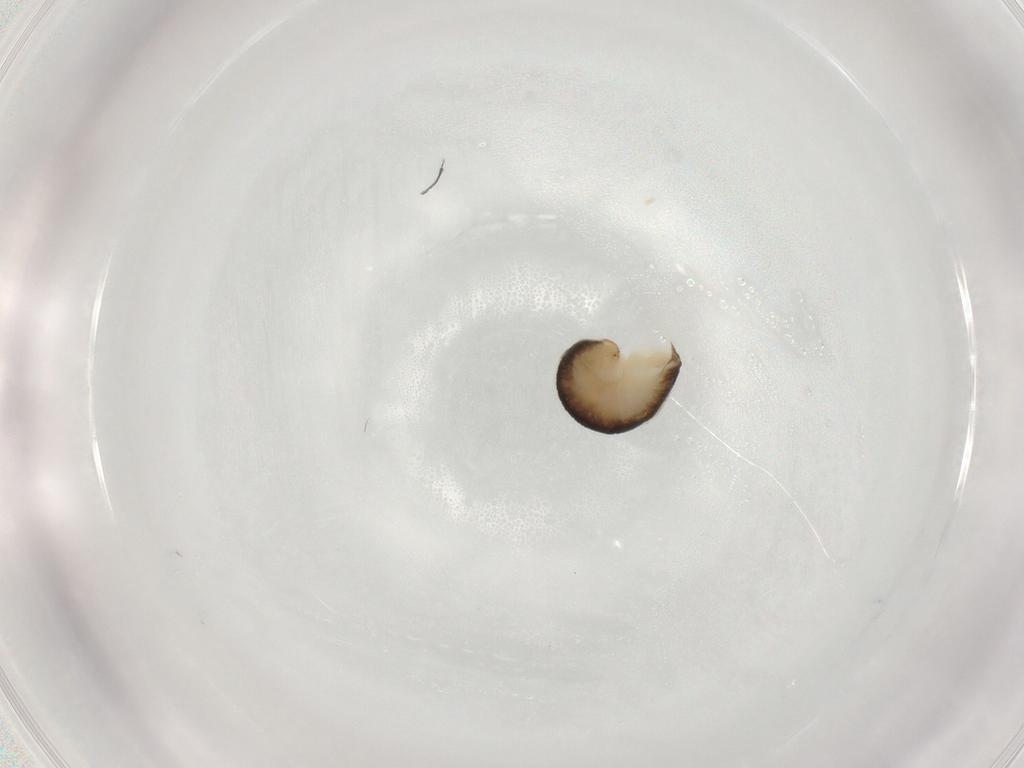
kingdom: Animalia
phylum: Arthropoda
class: Insecta
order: Hymenoptera
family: Dryinidae
